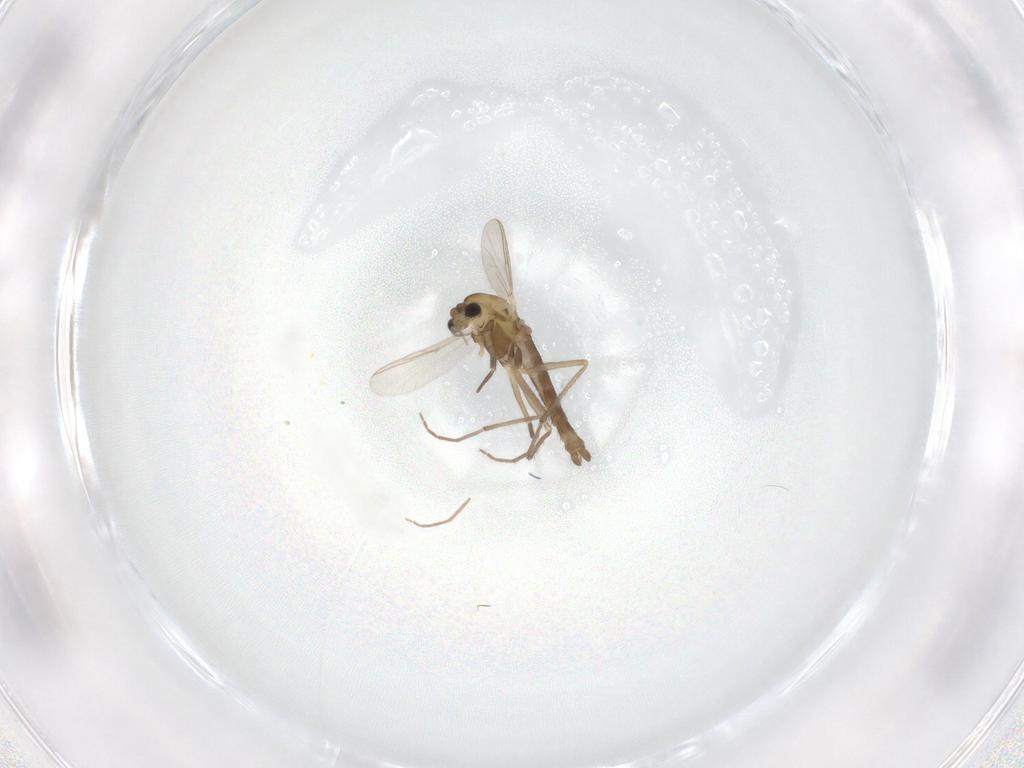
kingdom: Animalia
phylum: Arthropoda
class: Insecta
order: Diptera
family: Chironomidae
